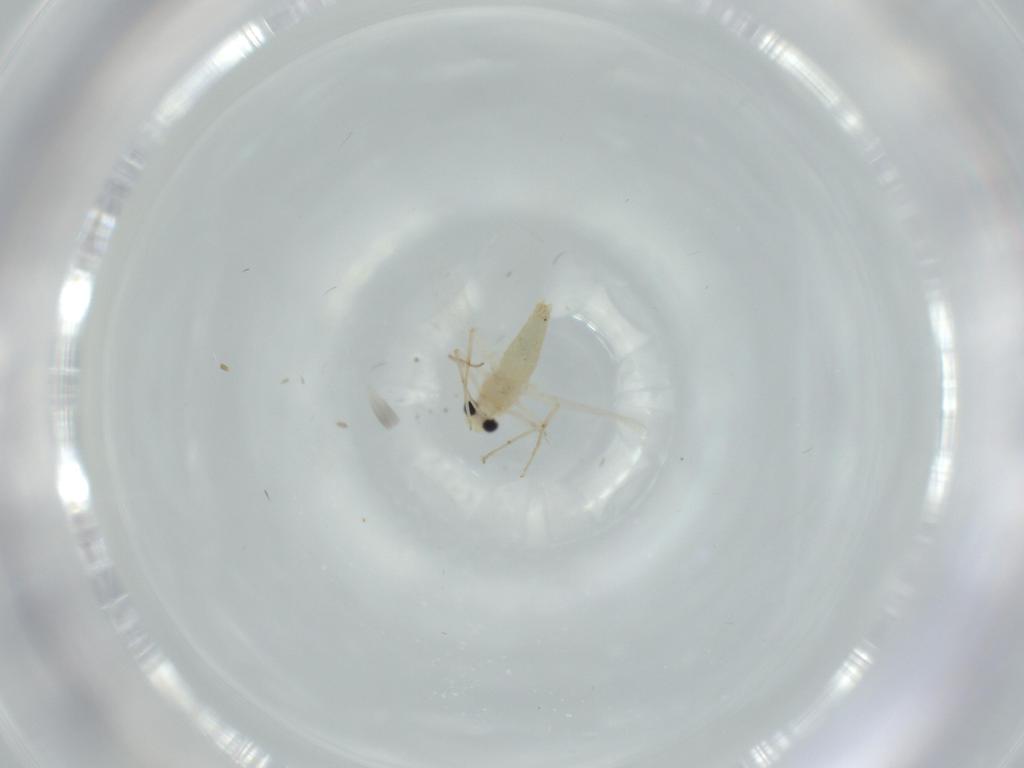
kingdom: Animalia
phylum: Arthropoda
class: Insecta
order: Diptera
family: Chironomidae
